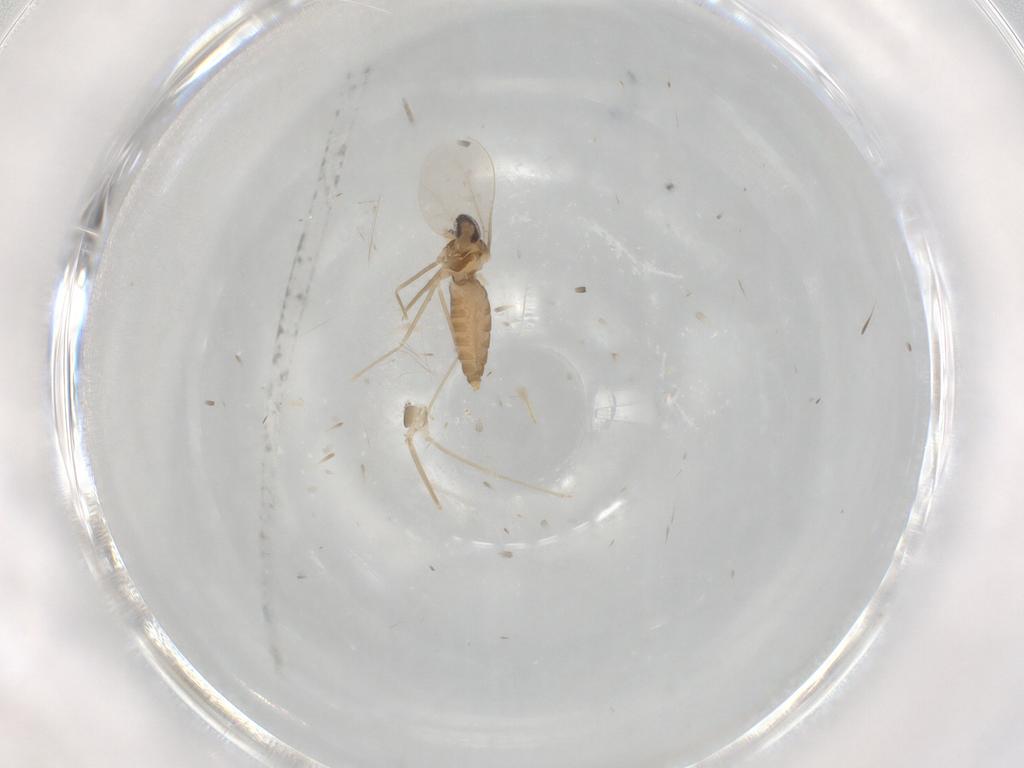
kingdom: Animalia
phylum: Arthropoda
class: Insecta
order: Diptera
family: Cecidomyiidae
